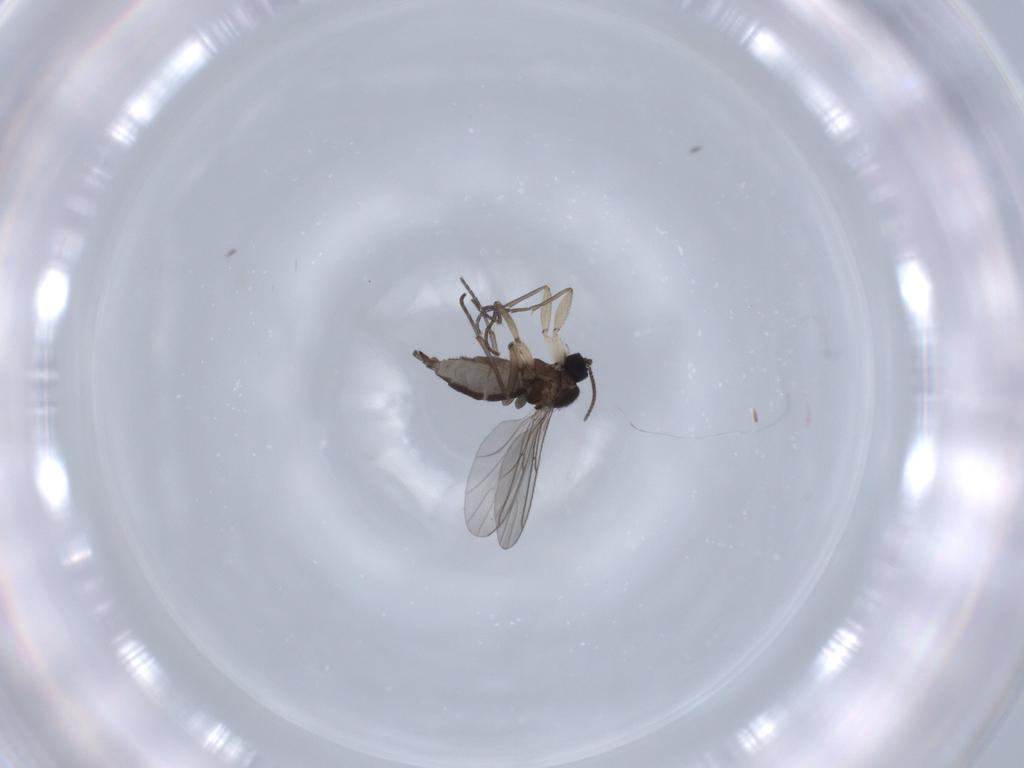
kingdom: Animalia
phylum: Arthropoda
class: Insecta
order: Diptera
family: Sciaridae
